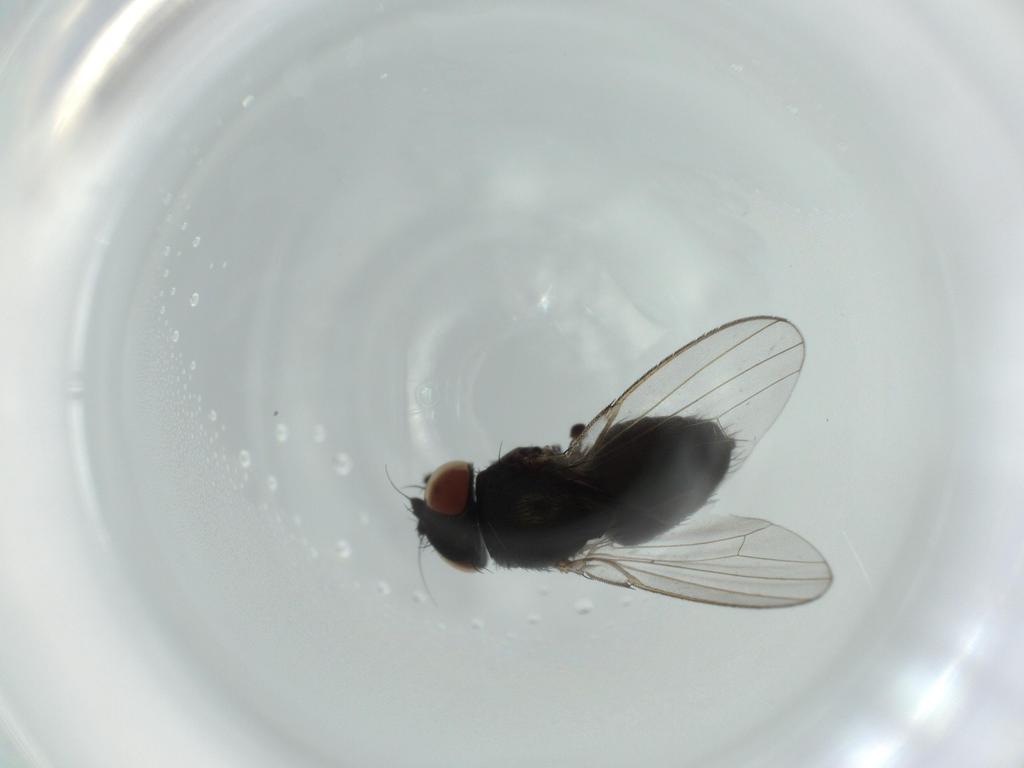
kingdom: Animalia
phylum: Arthropoda
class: Insecta
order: Diptera
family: Milichiidae
